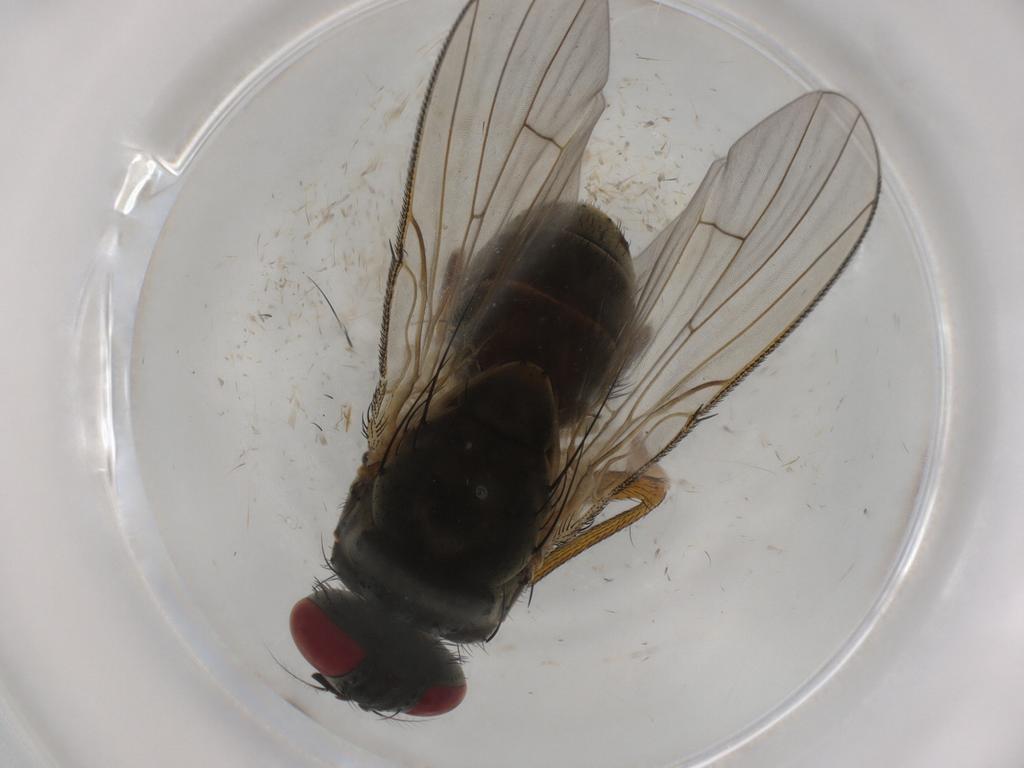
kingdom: Animalia
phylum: Arthropoda
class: Insecta
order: Diptera
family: Muscidae
